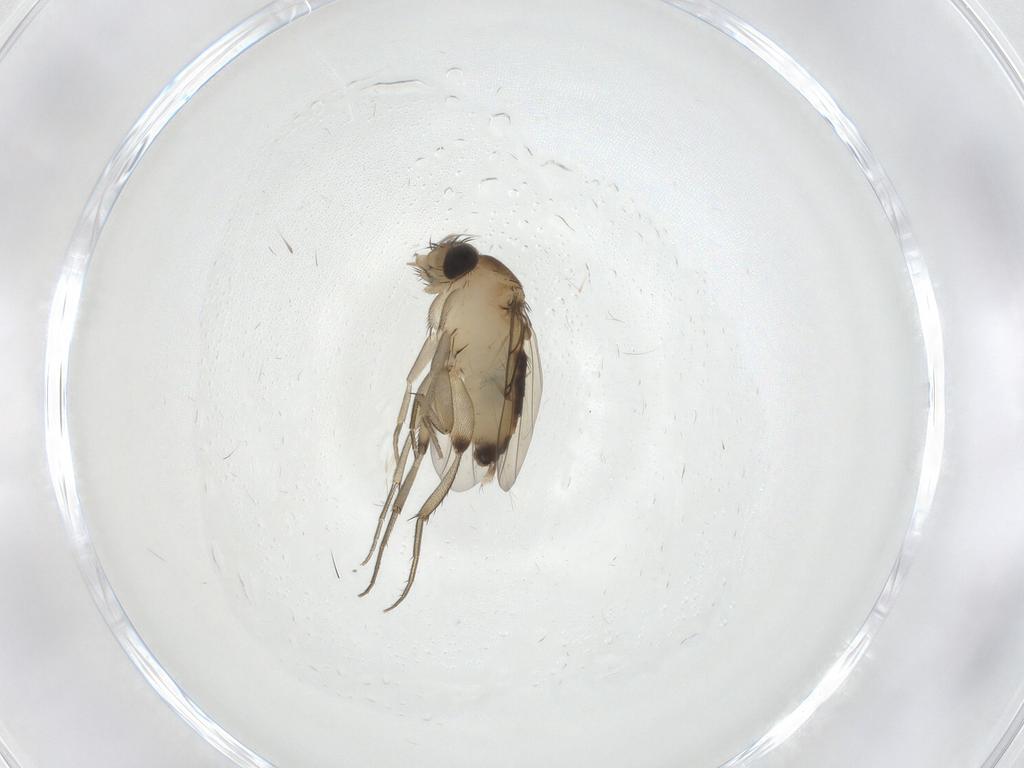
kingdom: Animalia
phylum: Arthropoda
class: Insecta
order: Diptera
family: Phoridae
